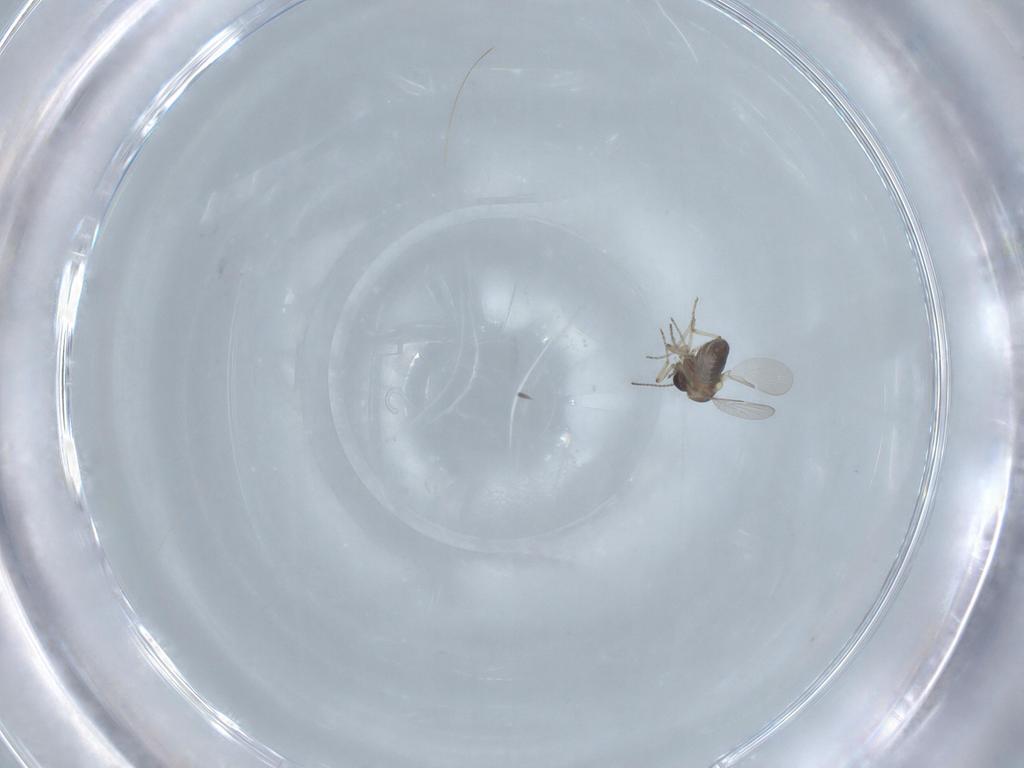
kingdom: Animalia
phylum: Arthropoda
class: Insecta
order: Diptera
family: Ceratopogonidae
